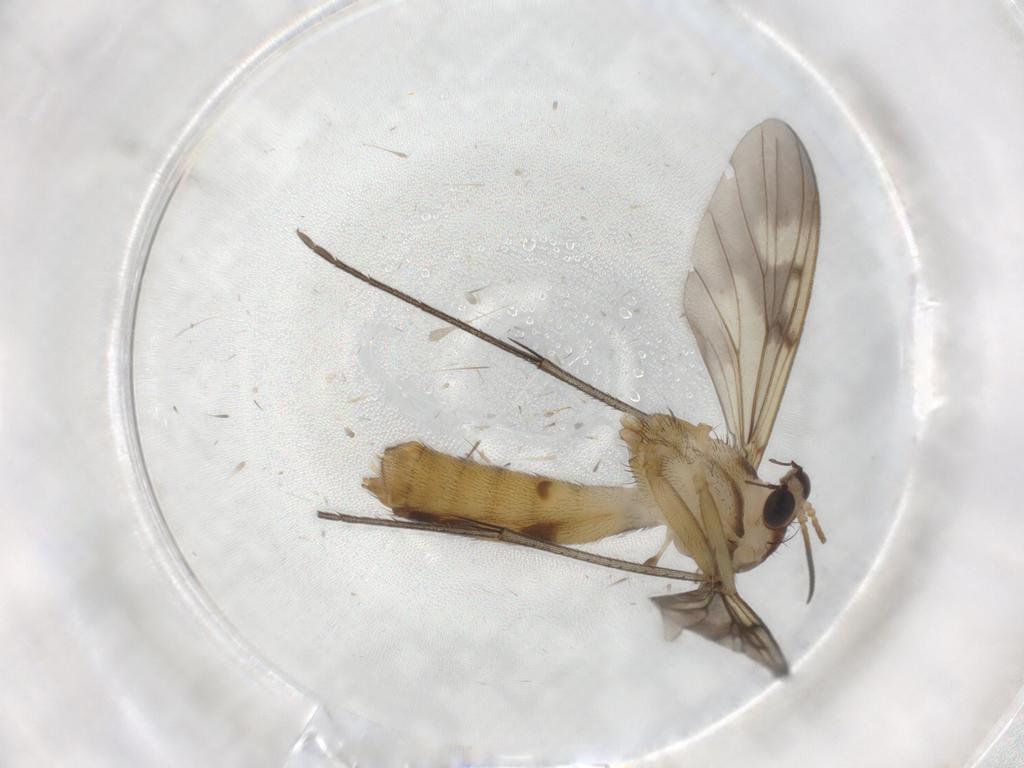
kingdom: Animalia
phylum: Arthropoda
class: Insecta
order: Diptera
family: Mycetophilidae
